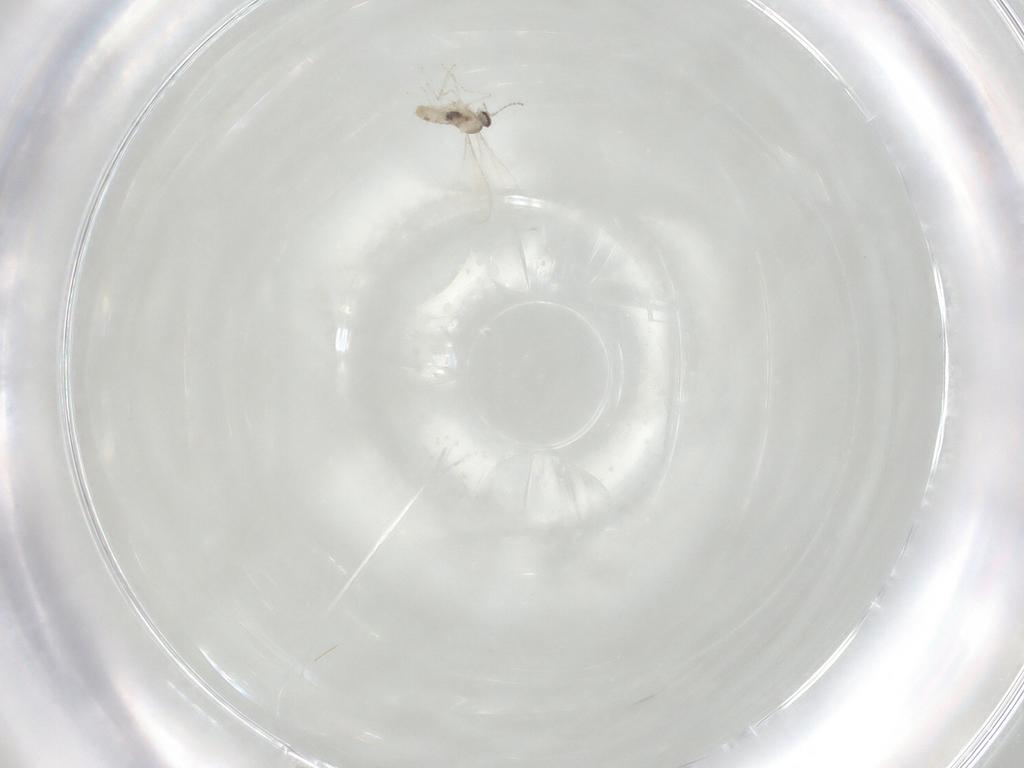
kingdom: Animalia
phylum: Arthropoda
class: Insecta
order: Diptera
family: Cecidomyiidae
